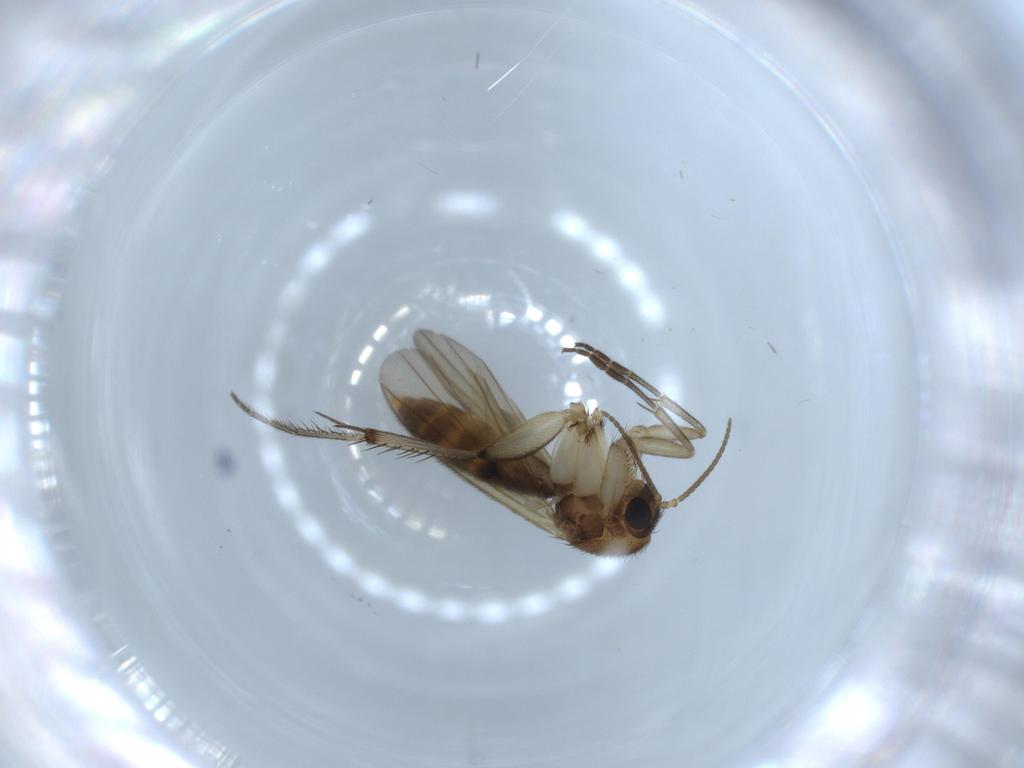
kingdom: Animalia
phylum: Arthropoda
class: Insecta
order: Diptera
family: Phoridae
